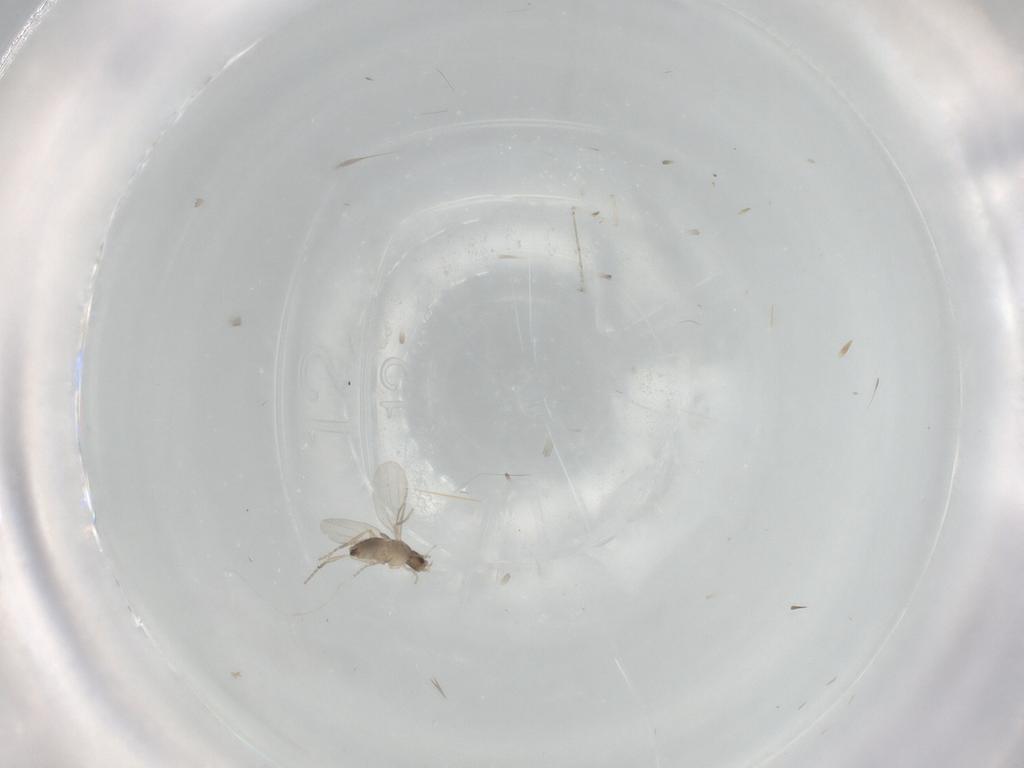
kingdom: Animalia
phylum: Arthropoda
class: Insecta
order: Diptera
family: Cecidomyiidae
